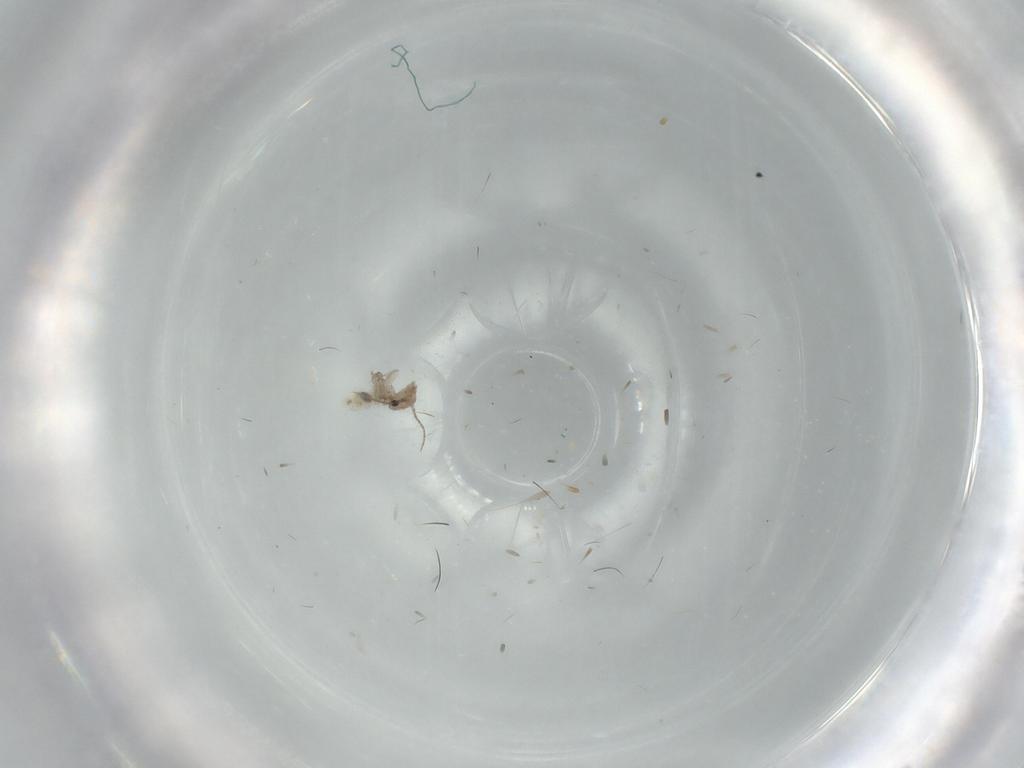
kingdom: Animalia
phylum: Arthropoda
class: Insecta
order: Psocodea
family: Lepidopsocidae
